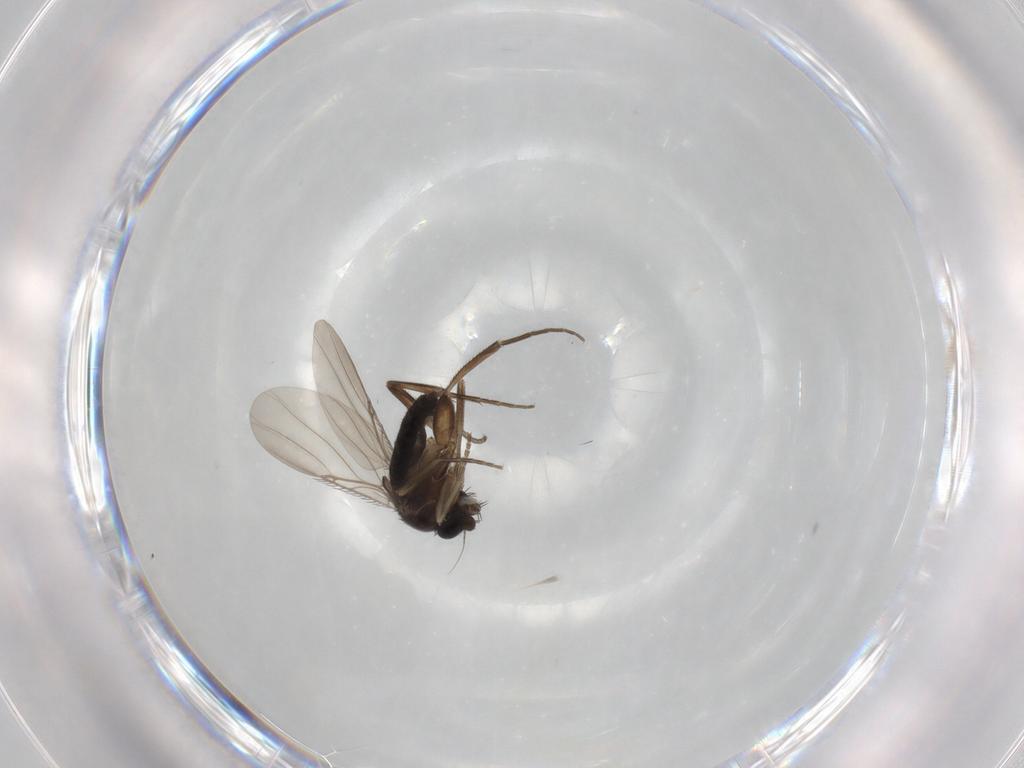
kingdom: Animalia
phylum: Arthropoda
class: Insecta
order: Diptera
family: Phoridae
